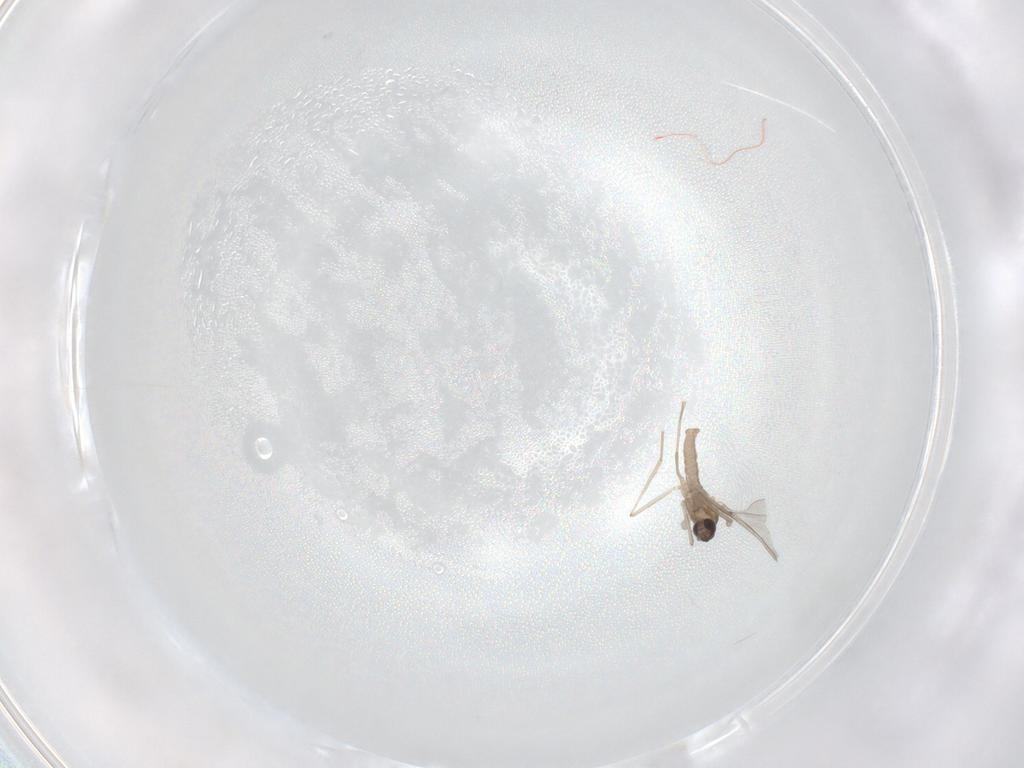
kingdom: Animalia
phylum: Arthropoda
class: Insecta
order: Diptera
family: Cecidomyiidae
